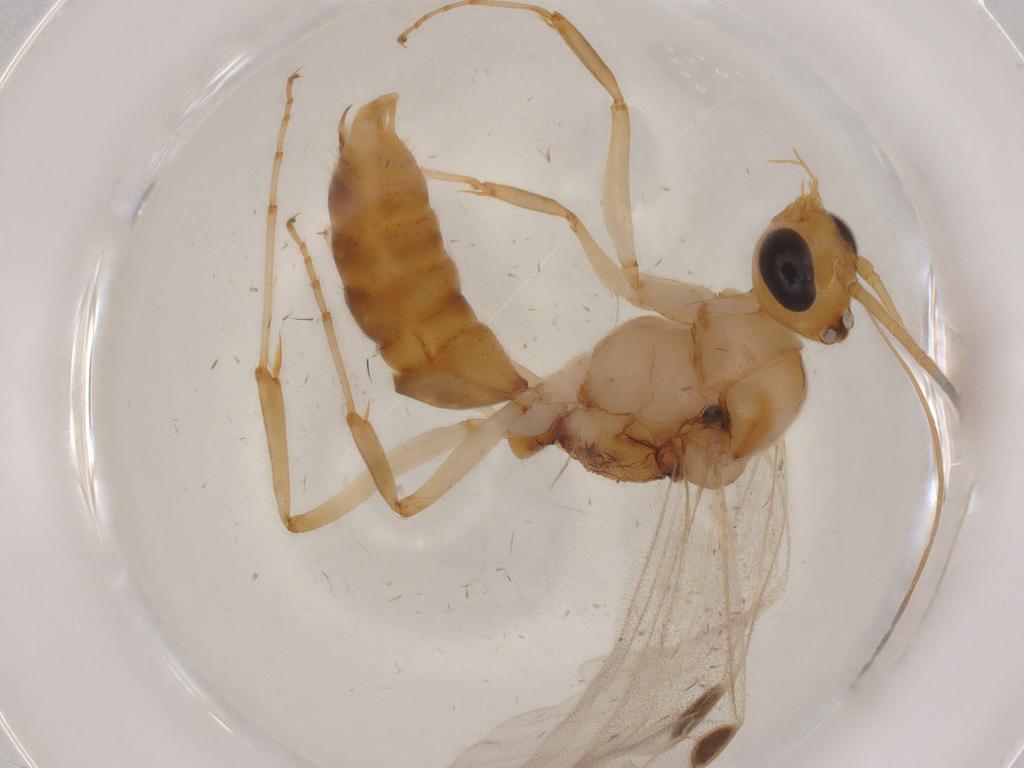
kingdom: Animalia
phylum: Arthropoda
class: Insecta
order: Hymenoptera
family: Formicidae
